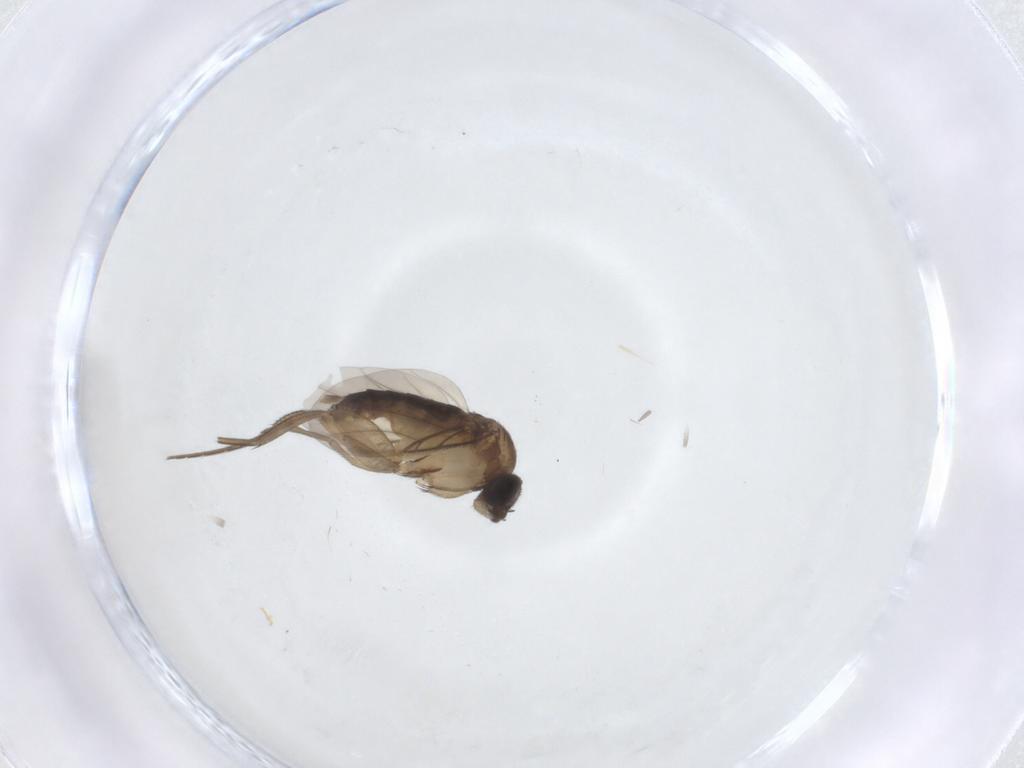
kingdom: Animalia
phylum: Arthropoda
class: Insecta
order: Diptera
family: Phoridae
